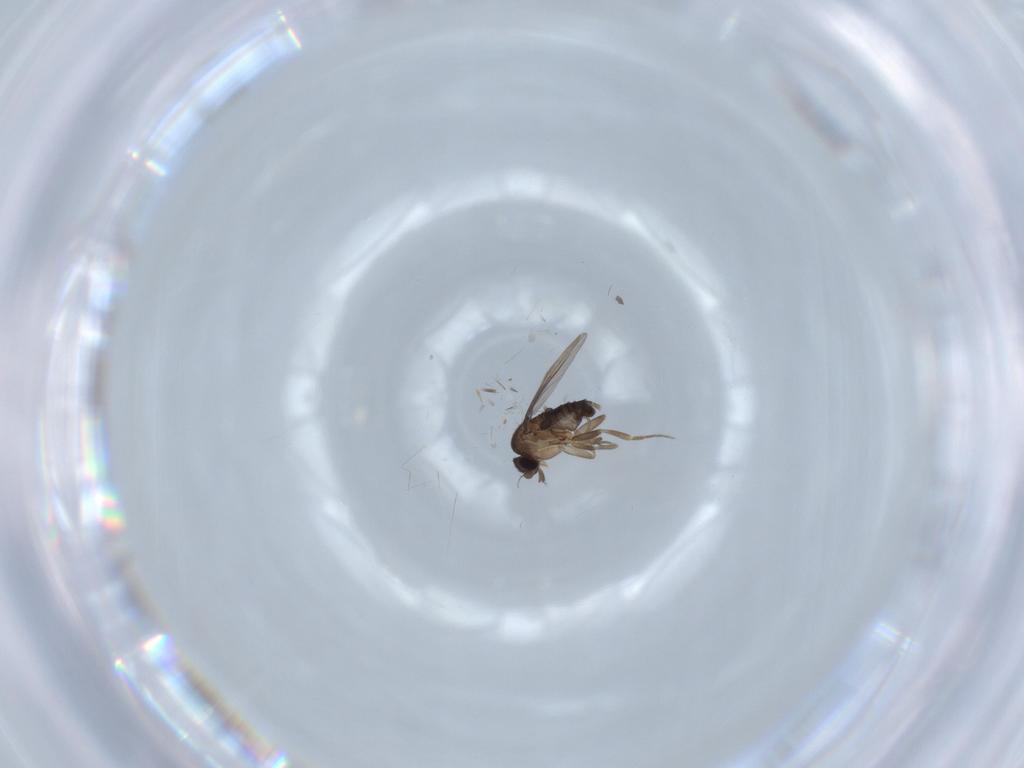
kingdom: Animalia
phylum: Arthropoda
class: Insecta
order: Diptera
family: Phoridae
